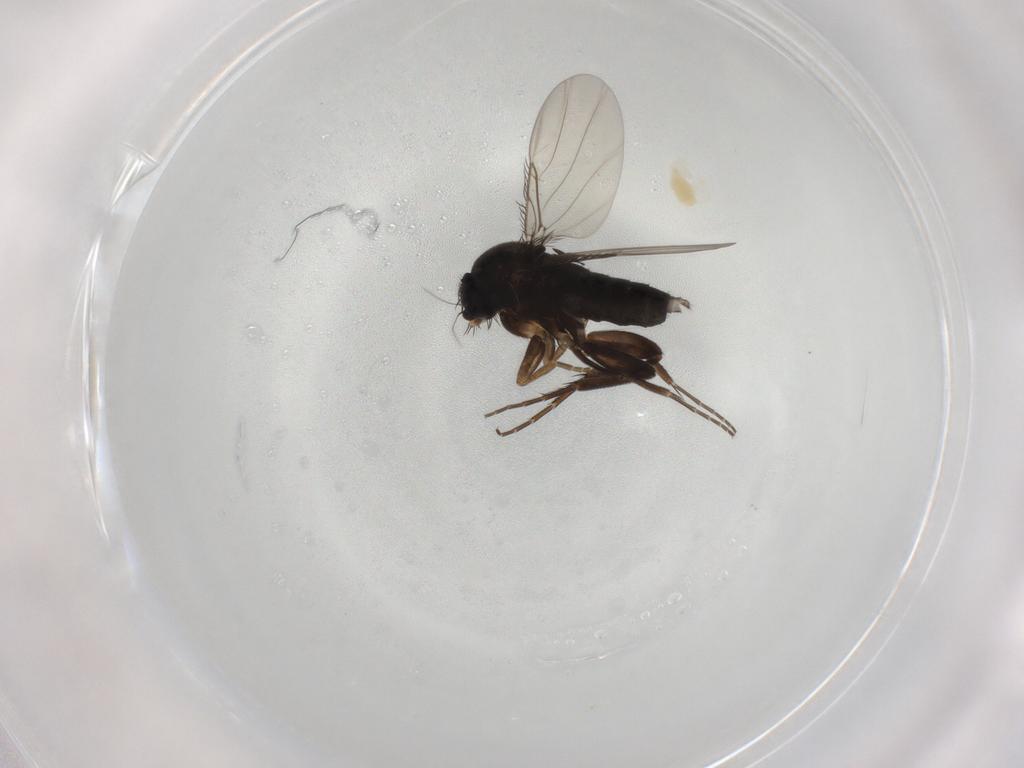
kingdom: Animalia
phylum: Arthropoda
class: Insecta
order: Diptera
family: Phoridae
